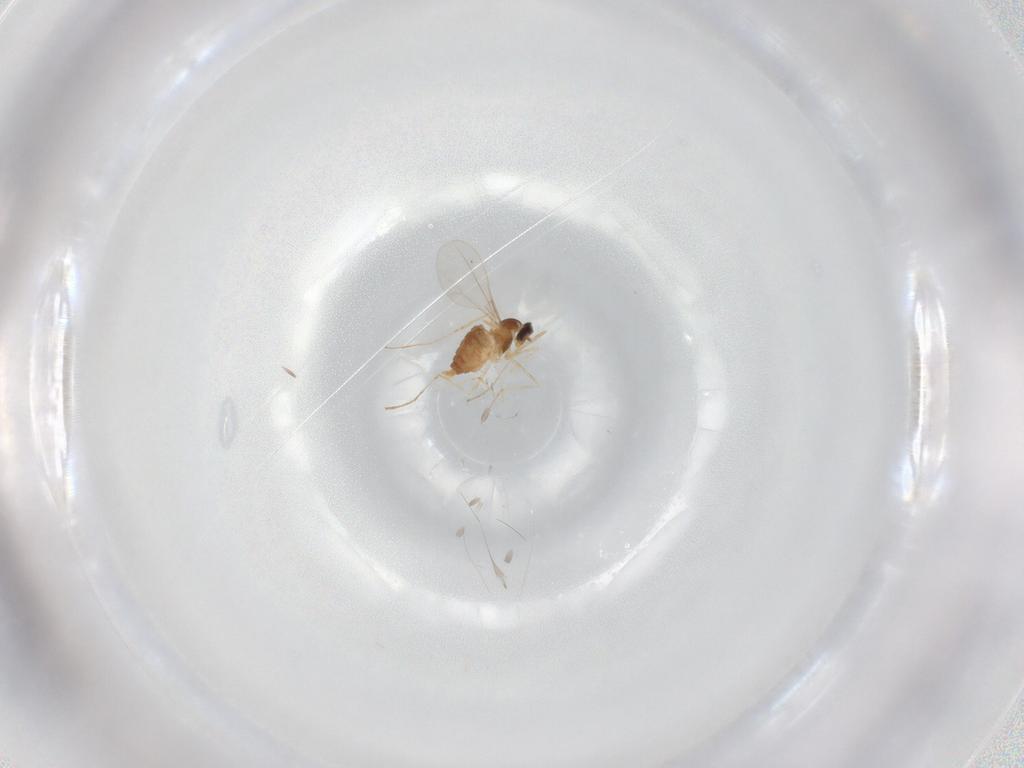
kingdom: Animalia
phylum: Arthropoda
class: Insecta
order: Diptera
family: Cecidomyiidae
